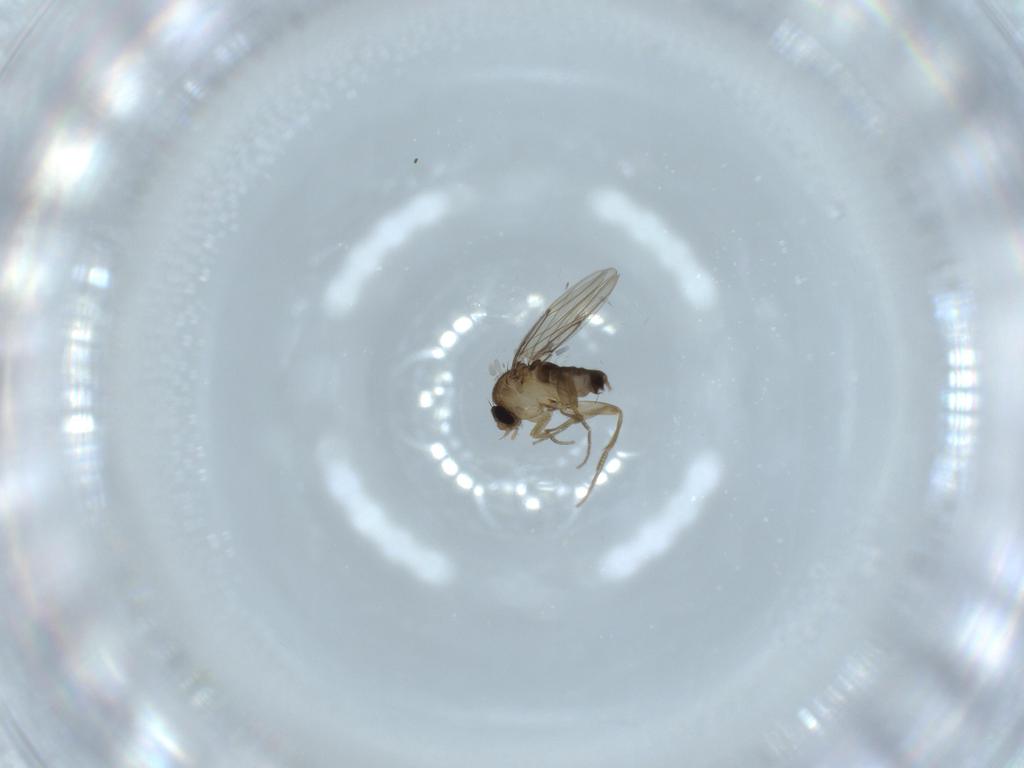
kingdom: Animalia
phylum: Arthropoda
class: Insecta
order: Diptera
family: Phoridae
